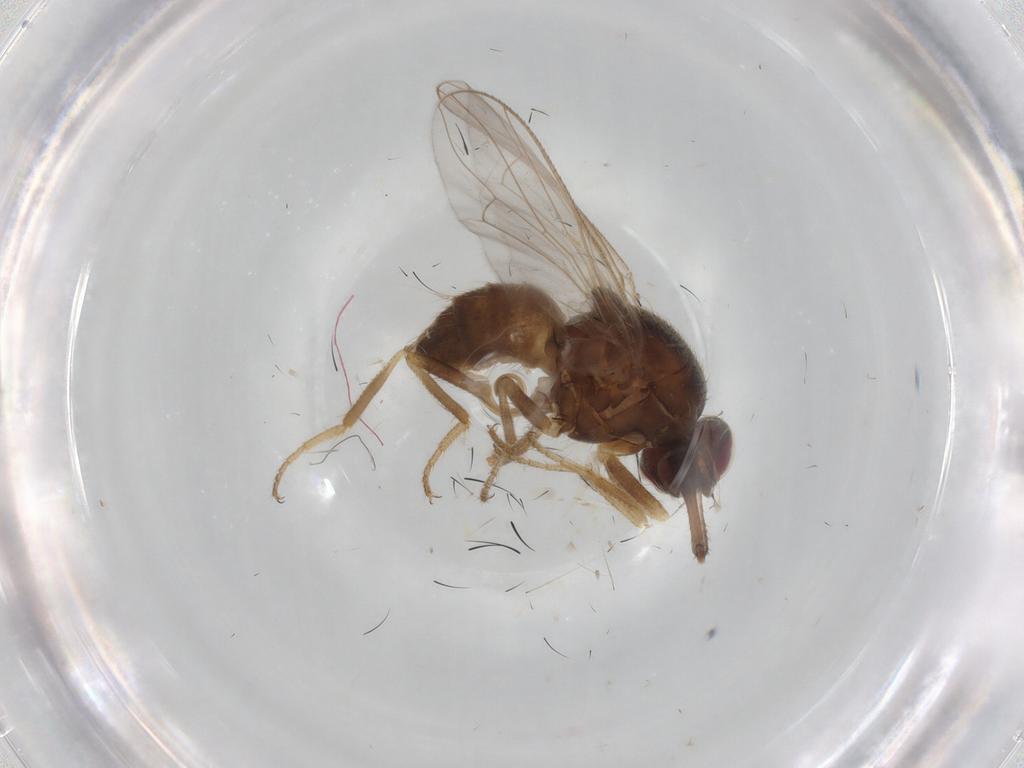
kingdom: Animalia
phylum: Arthropoda
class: Insecta
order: Diptera
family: Sarcophagidae
